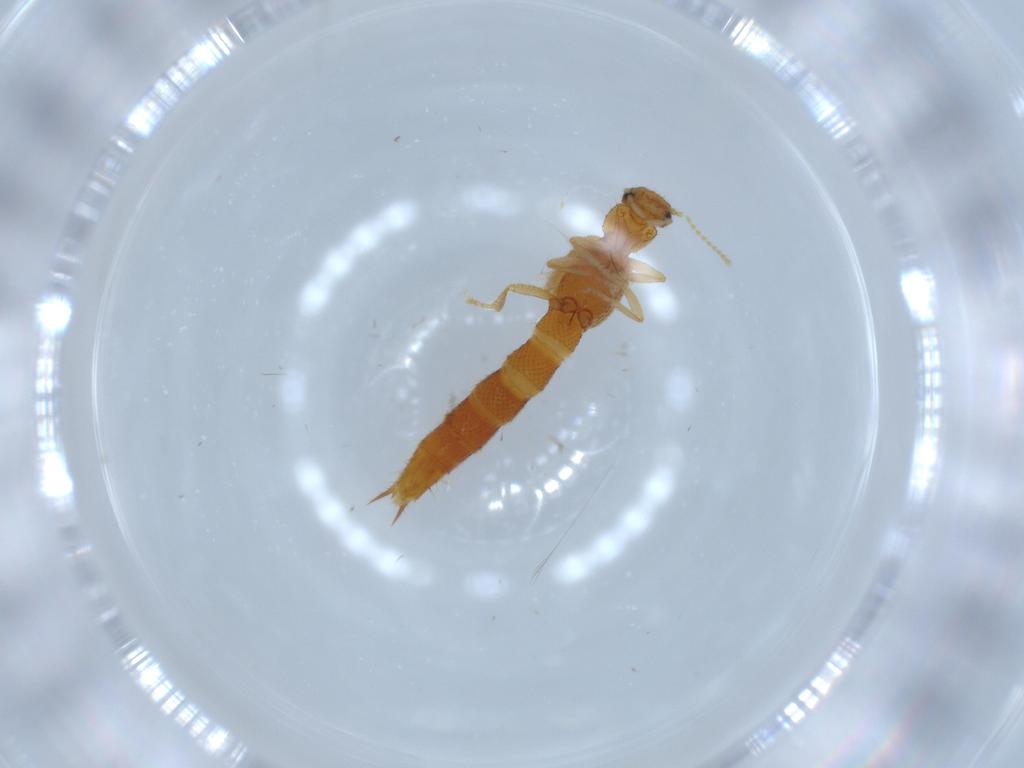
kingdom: Animalia
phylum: Arthropoda
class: Insecta
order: Coleoptera
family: Staphylinidae
